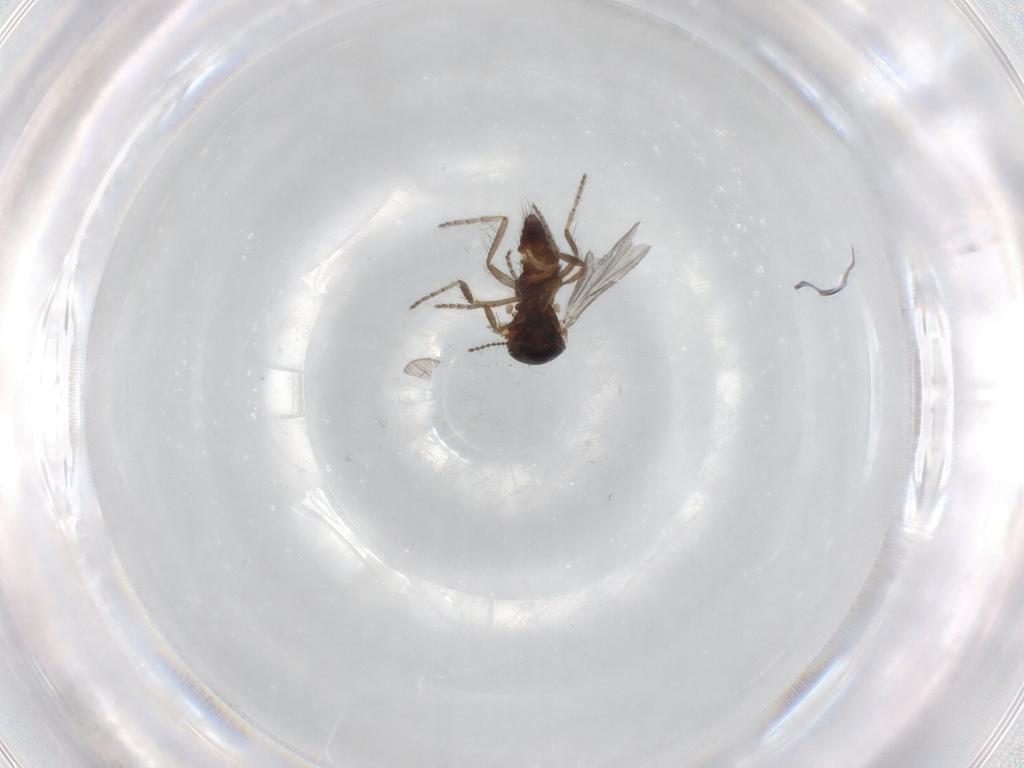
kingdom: Animalia
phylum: Arthropoda
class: Insecta
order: Diptera
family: Ceratopogonidae
